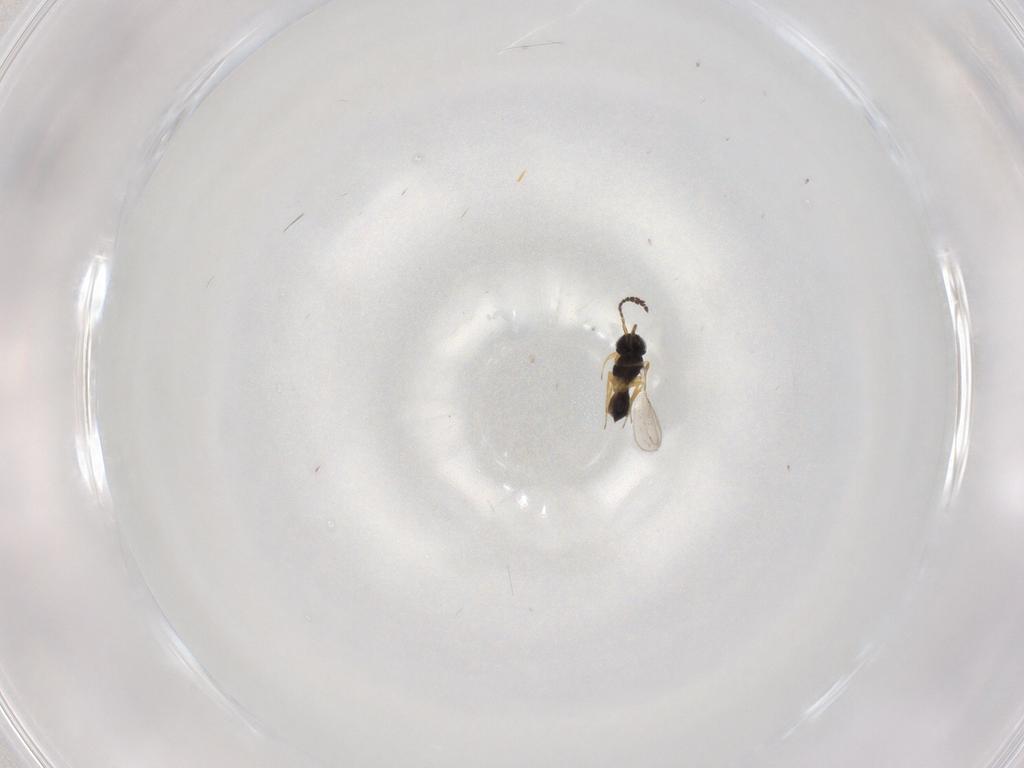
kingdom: Animalia
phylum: Arthropoda
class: Insecta
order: Hymenoptera
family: Scelionidae
